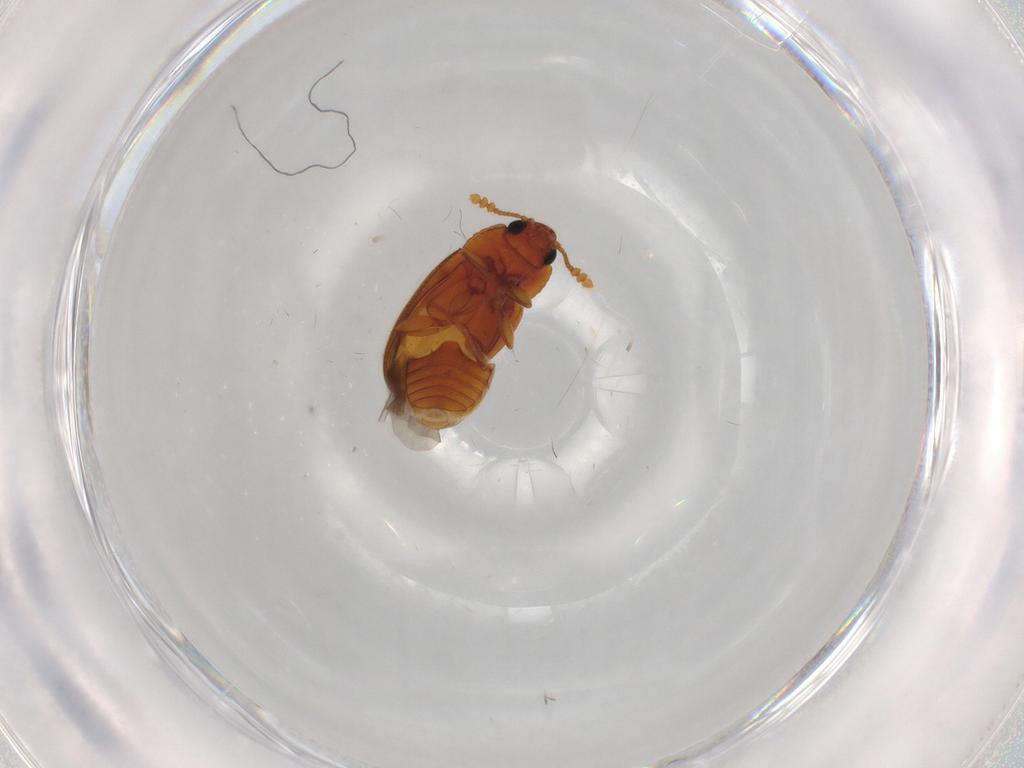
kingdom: Animalia
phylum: Arthropoda
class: Insecta
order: Coleoptera
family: Erotylidae
